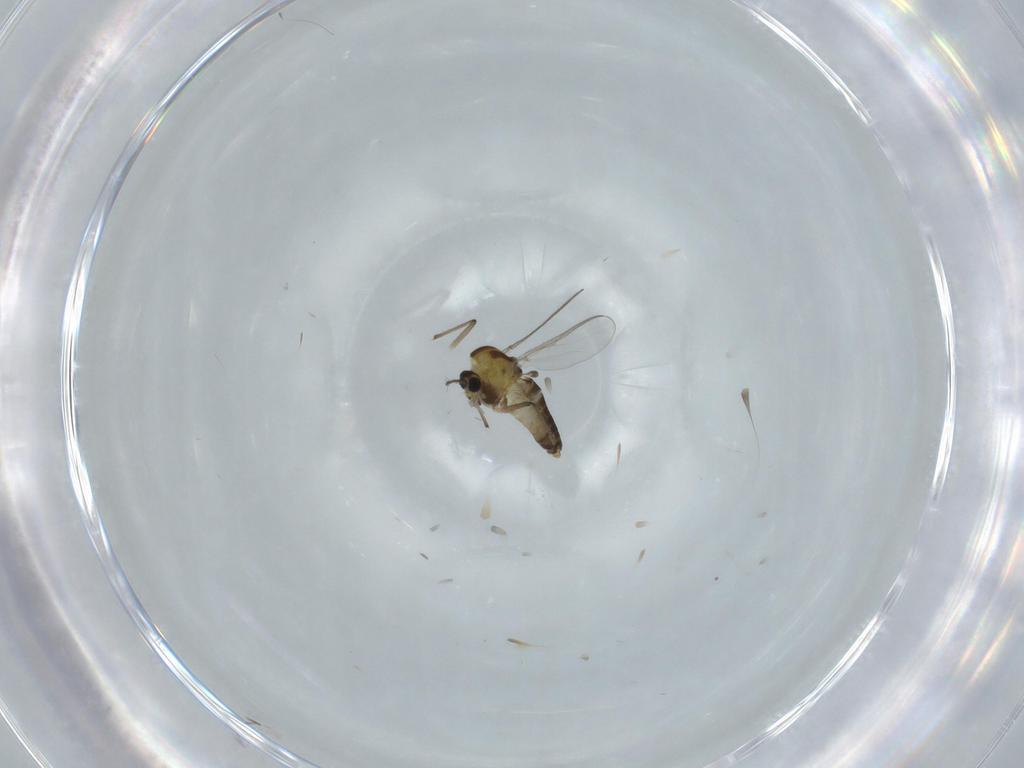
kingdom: Animalia
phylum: Arthropoda
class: Insecta
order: Diptera
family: Chironomidae
